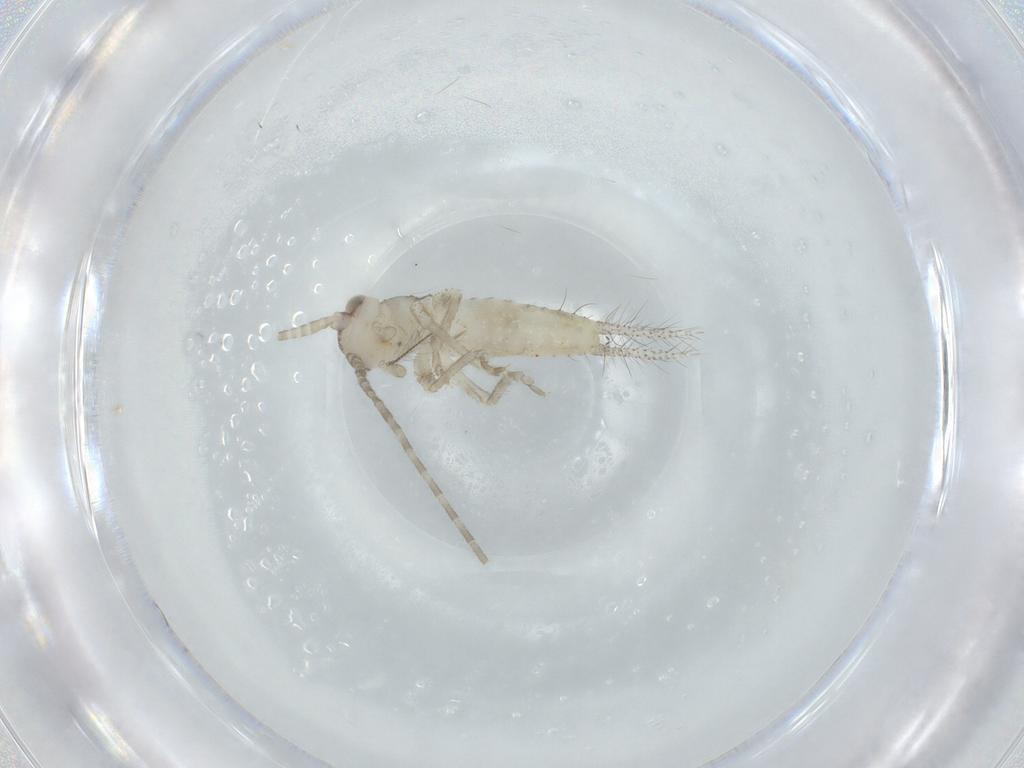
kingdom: Animalia
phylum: Arthropoda
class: Insecta
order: Orthoptera
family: Gryllidae
